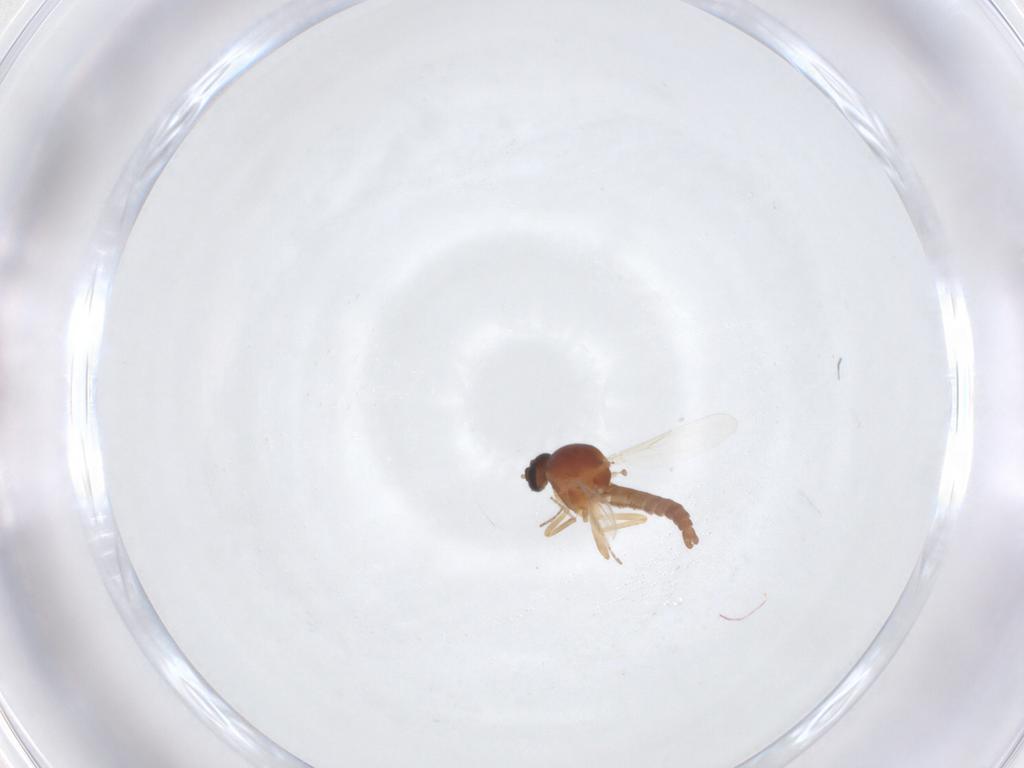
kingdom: Animalia
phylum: Arthropoda
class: Insecta
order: Diptera
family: Ceratopogonidae
